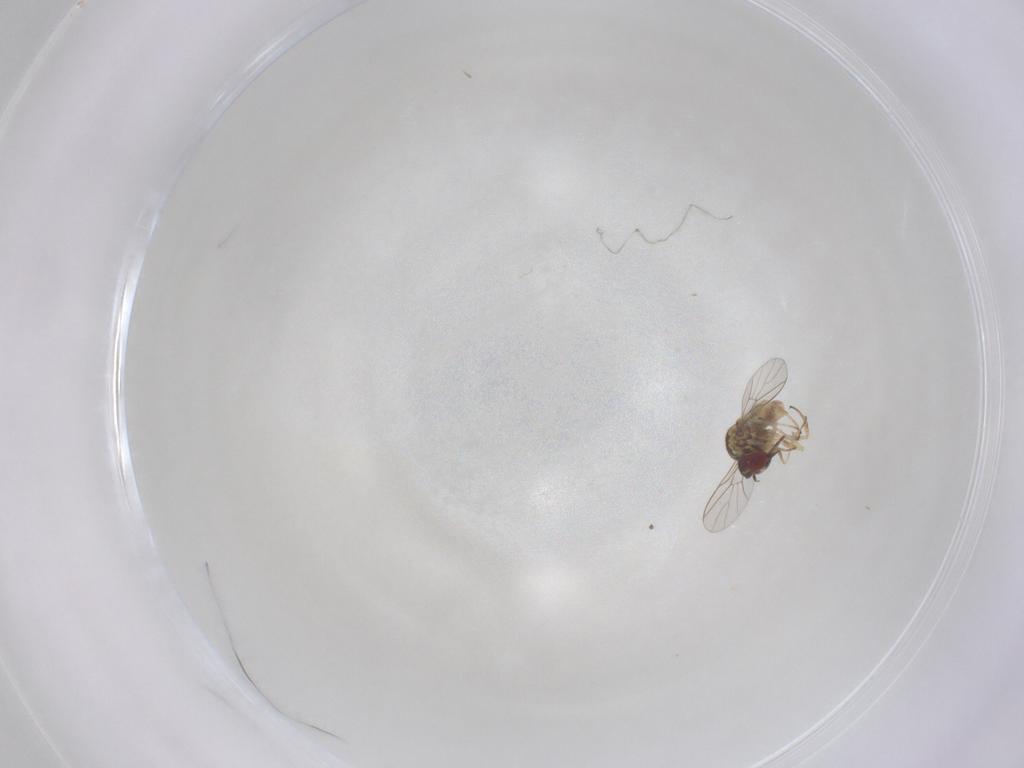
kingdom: Animalia
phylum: Arthropoda
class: Insecta
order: Diptera
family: Bombyliidae
